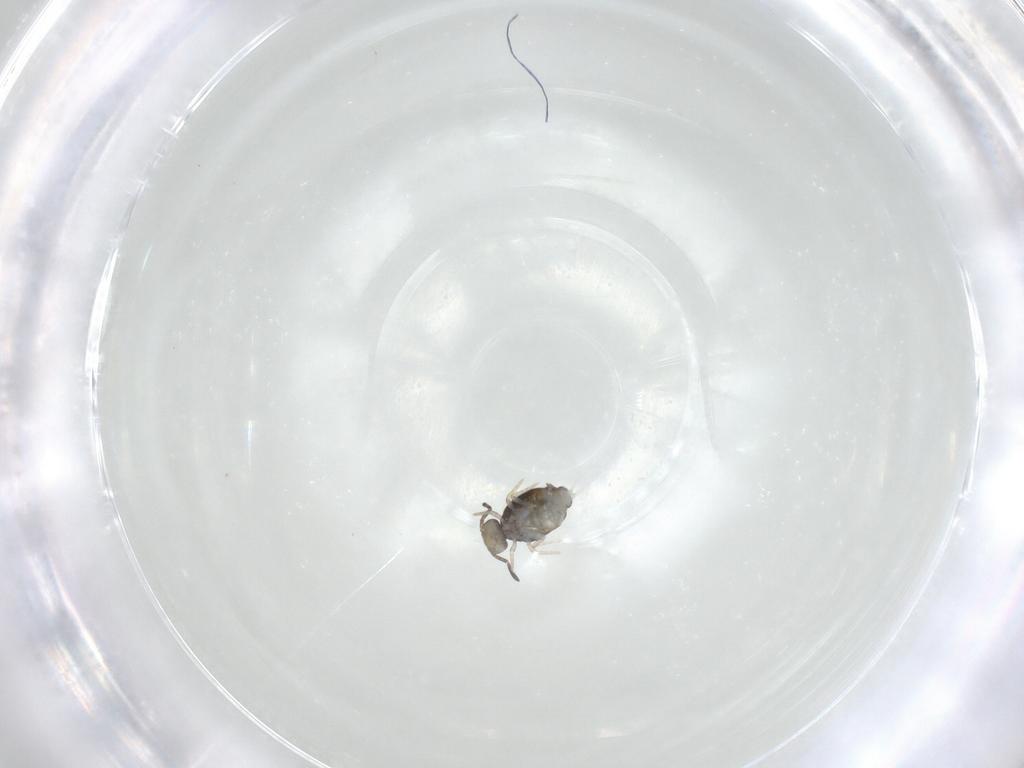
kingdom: Animalia
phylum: Arthropoda
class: Collembola
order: Symphypleona
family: Katiannidae
